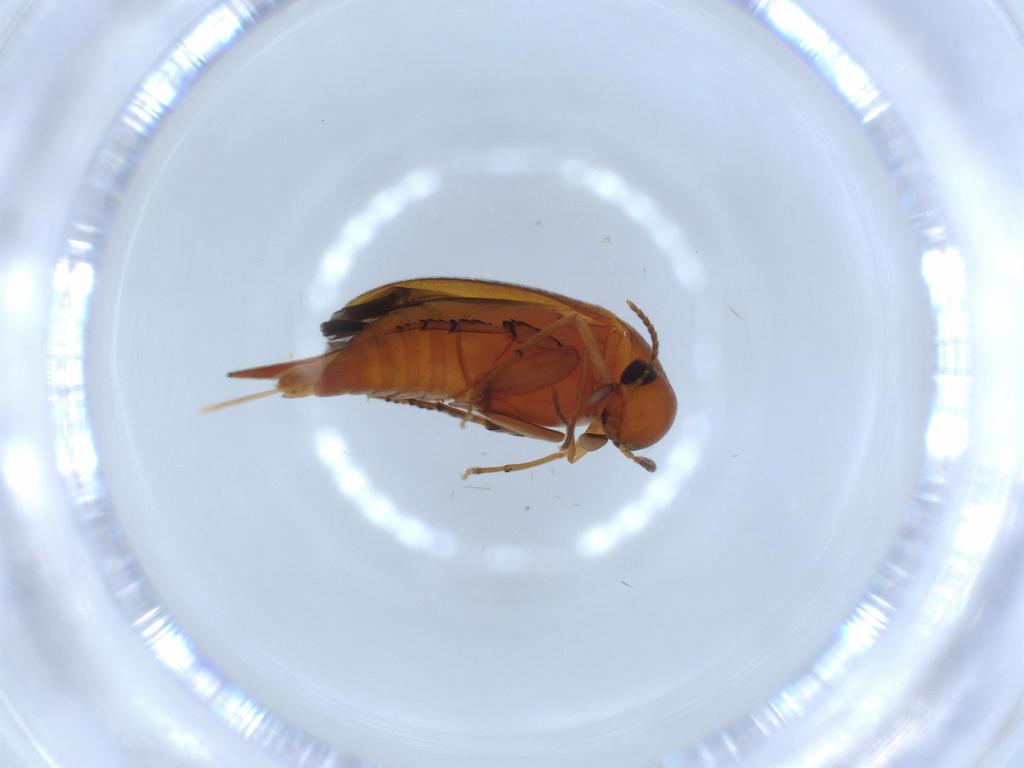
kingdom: Animalia
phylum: Arthropoda
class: Insecta
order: Coleoptera
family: Mordellidae
